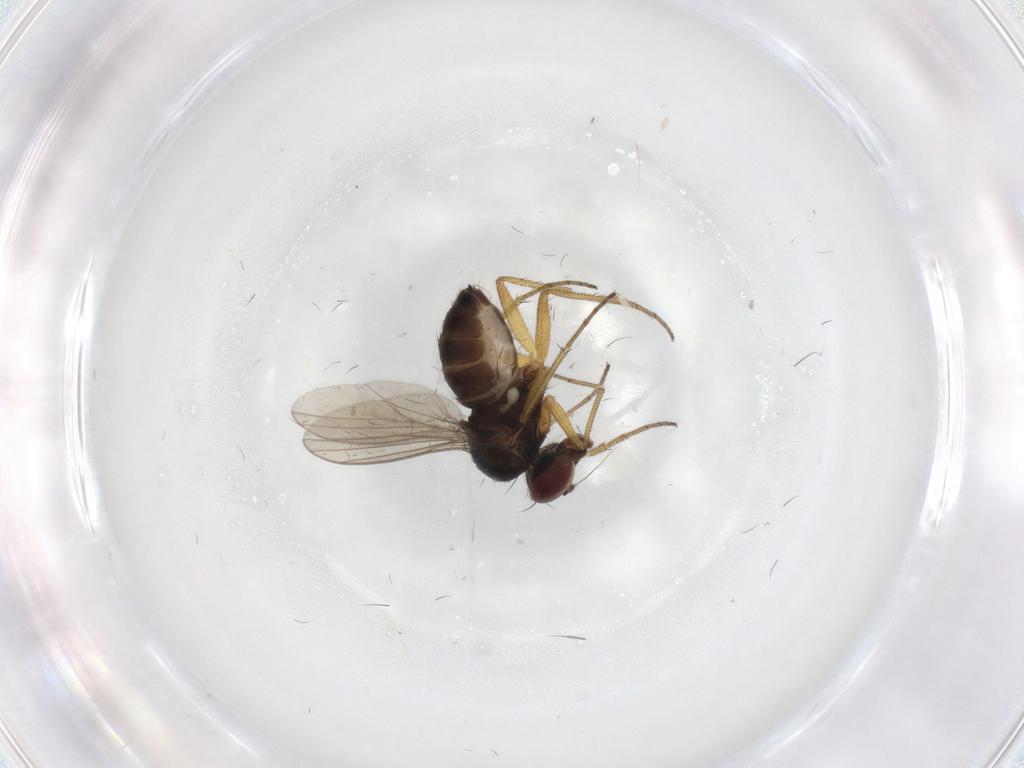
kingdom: Animalia
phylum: Arthropoda
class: Insecta
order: Diptera
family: Dolichopodidae
